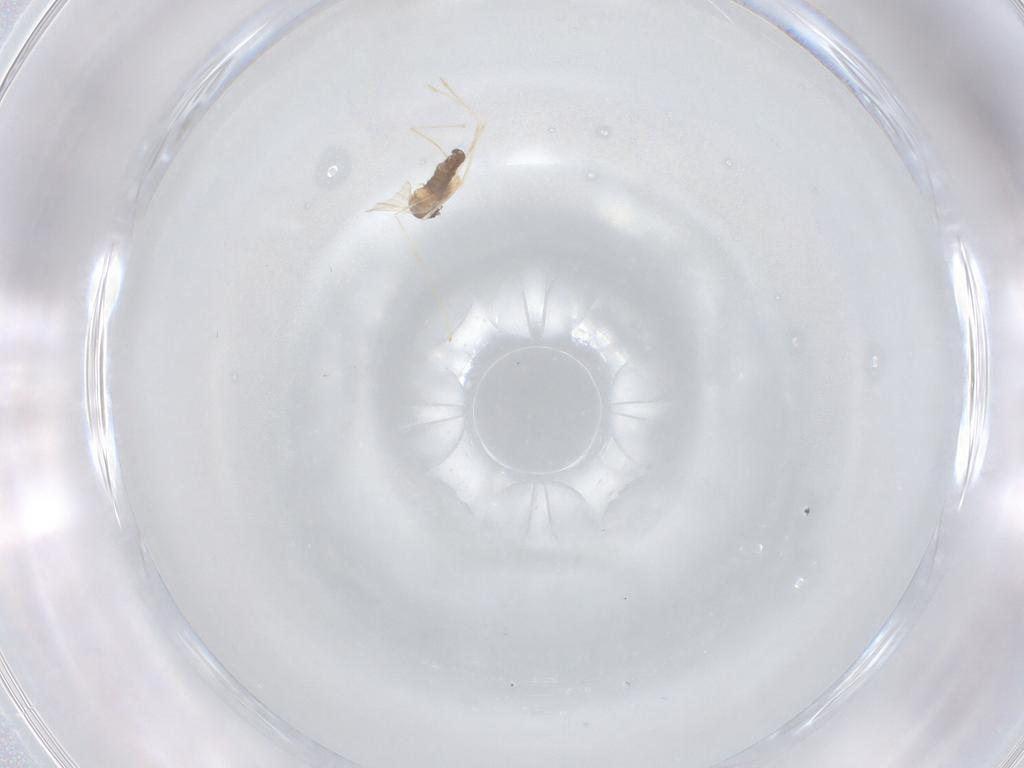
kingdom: Animalia
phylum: Arthropoda
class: Insecta
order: Diptera
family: Cecidomyiidae
